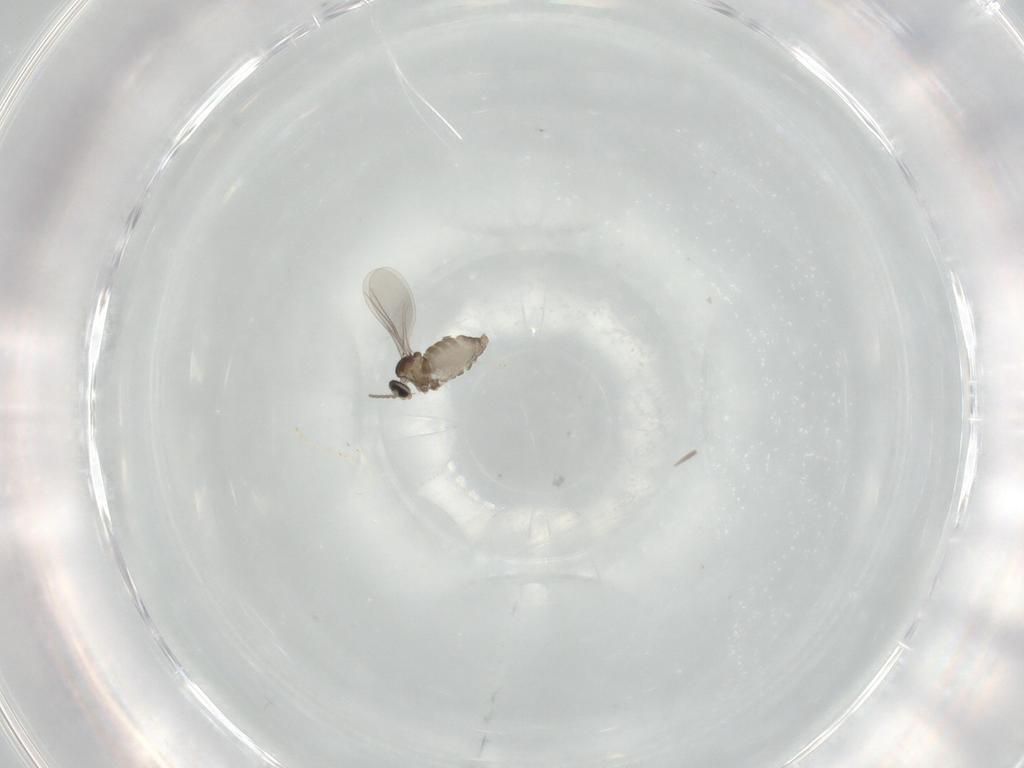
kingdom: Animalia
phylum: Arthropoda
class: Insecta
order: Diptera
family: Cecidomyiidae
